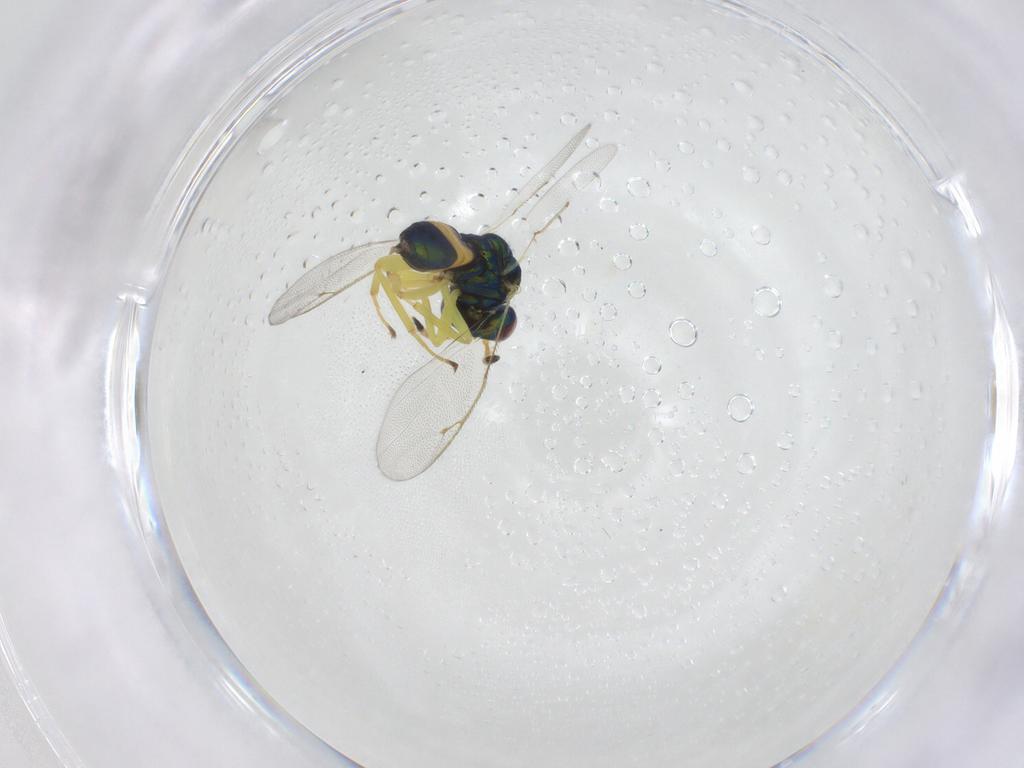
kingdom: Animalia
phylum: Arthropoda
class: Insecta
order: Hymenoptera
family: Pteromalidae
